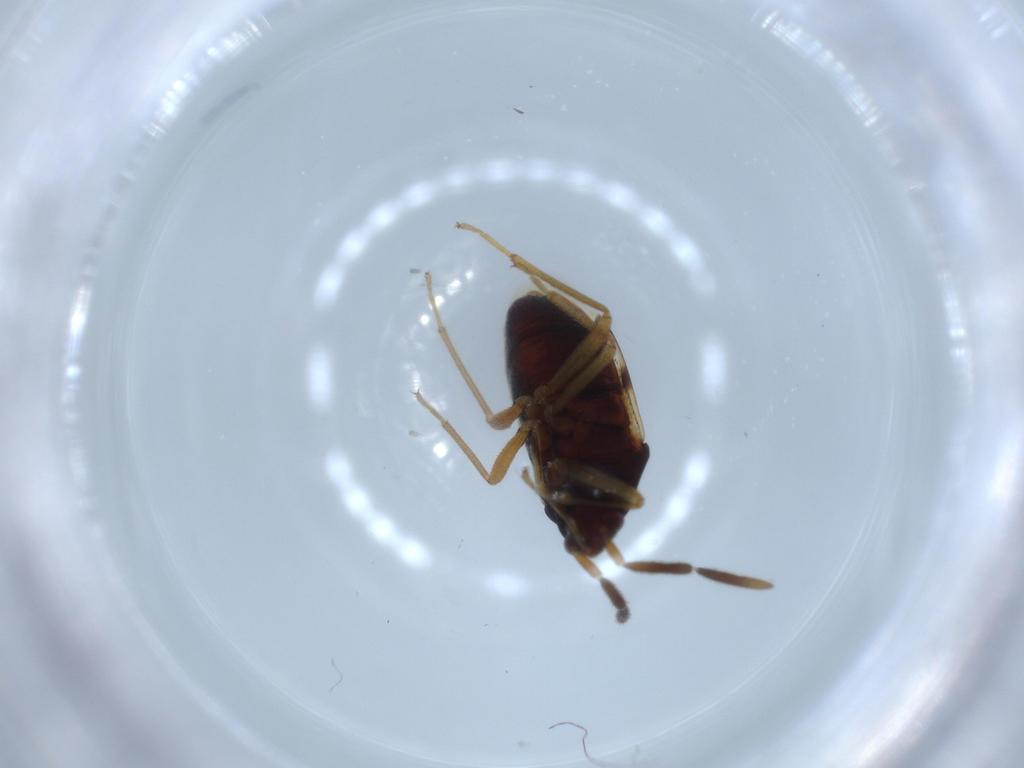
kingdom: Animalia
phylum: Arthropoda
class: Insecta
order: Hemiptera
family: Rhyparochromidae
